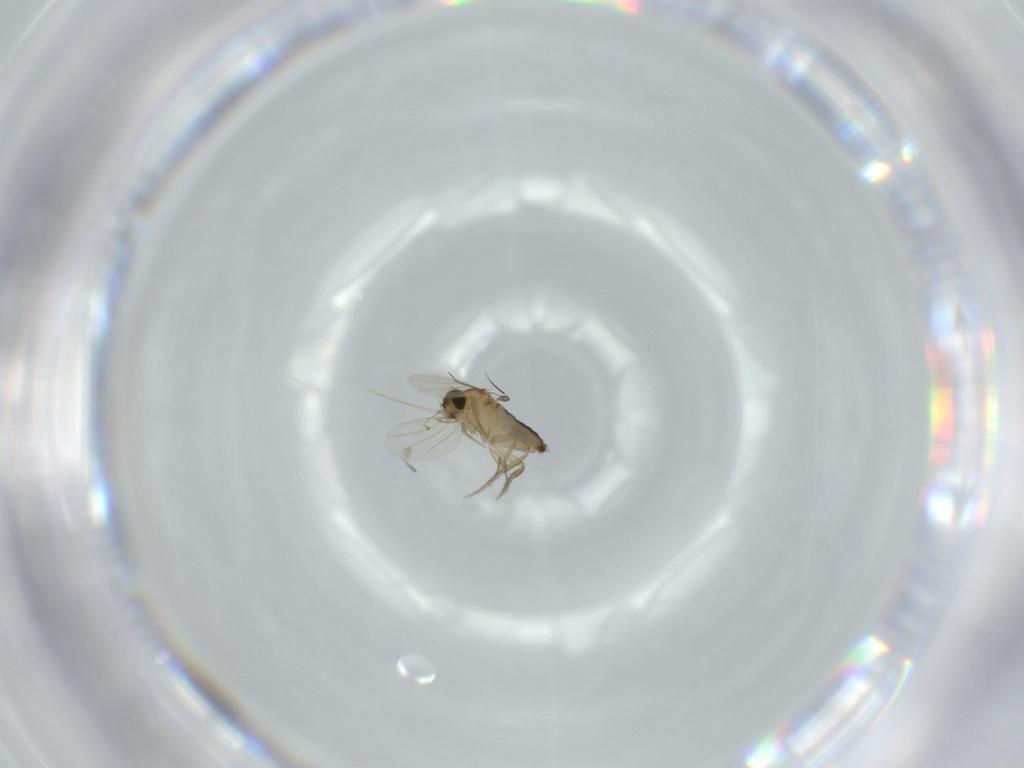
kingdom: Animalia
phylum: Arthropoda
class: Insecta
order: Diptera
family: Phoridae
